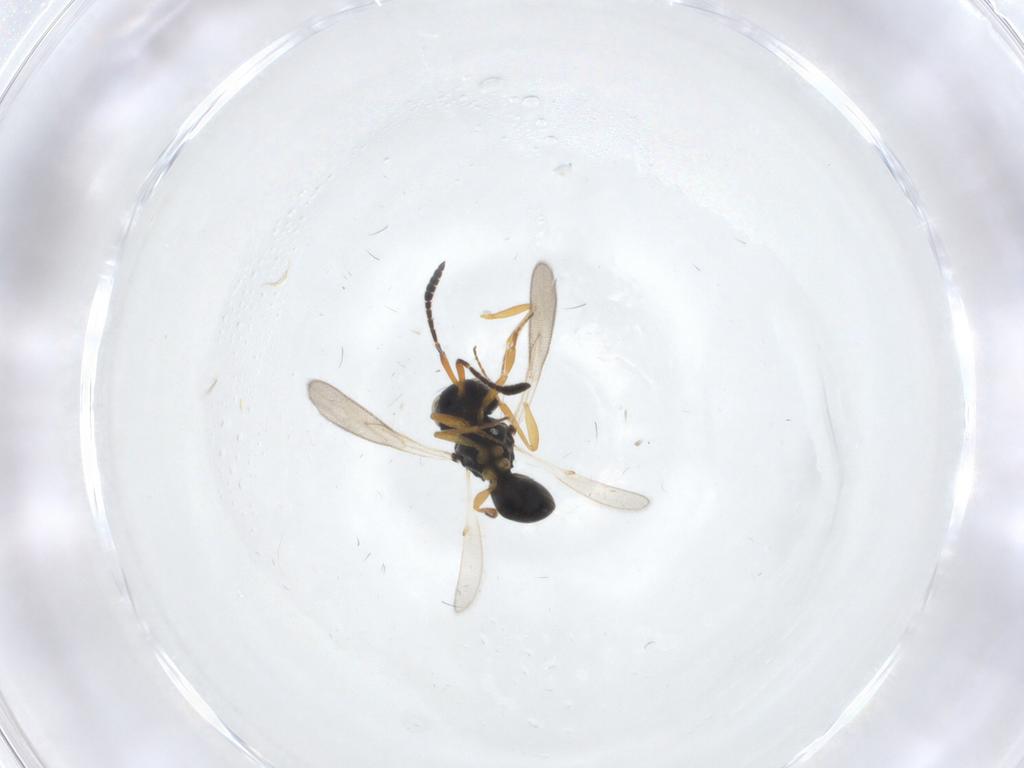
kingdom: Animalia
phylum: Arthropoda
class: Insecta
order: Hymenoptera
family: Scelionidae
